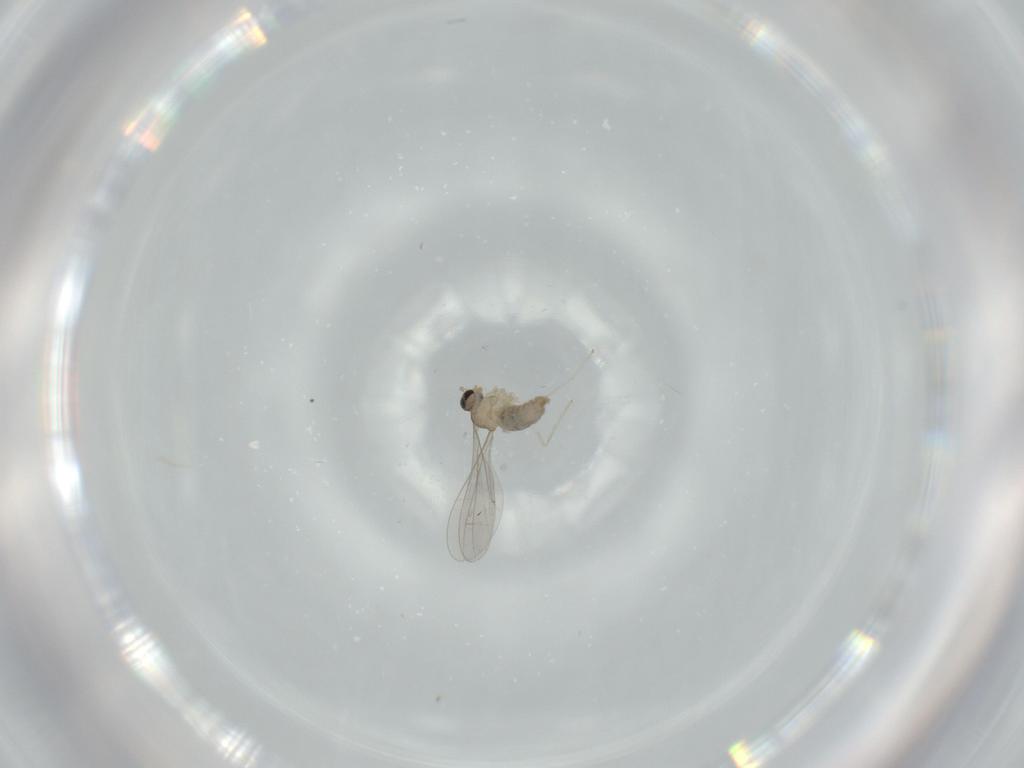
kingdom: Animalia
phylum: Arthropoda
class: Insecta
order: Diptera
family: Cecidomyiidae
